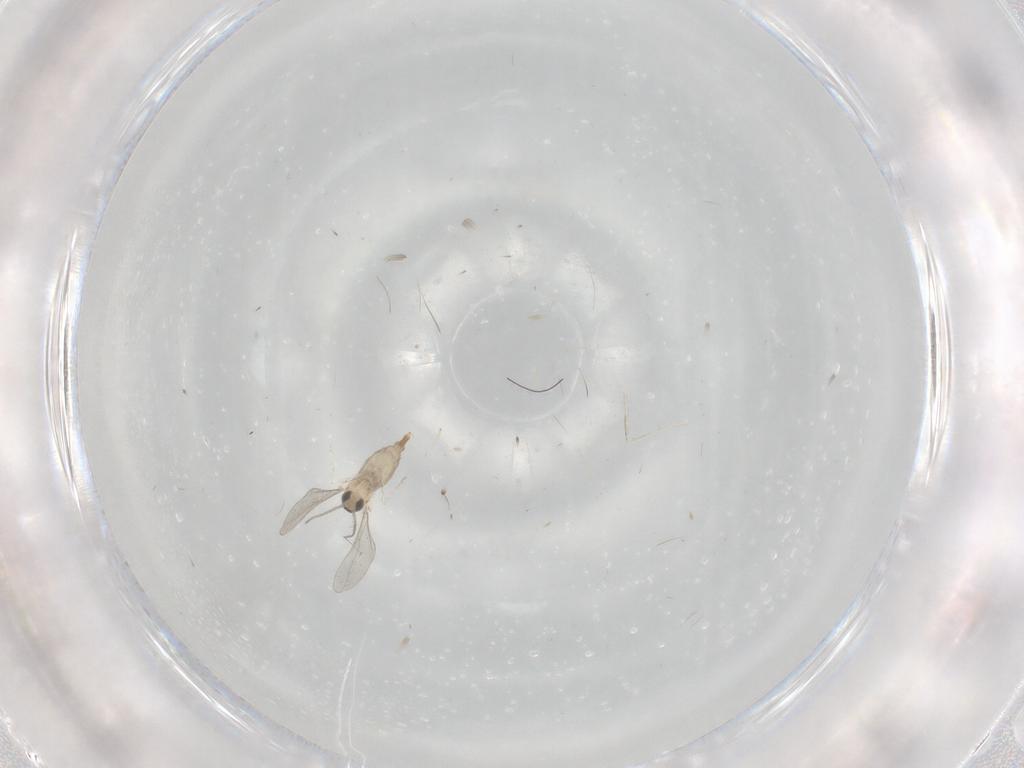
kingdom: Animalia
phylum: Arthropoda
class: Insecta
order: Diptera
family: Cecidomyiidae
